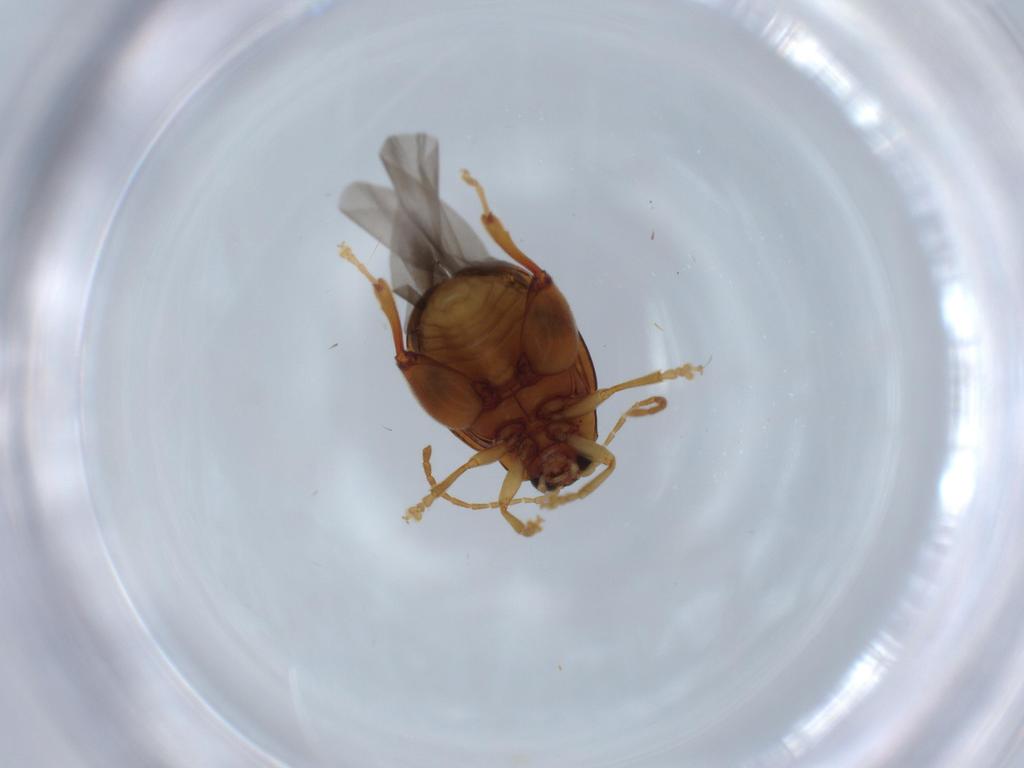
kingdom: Animalia
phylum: Arthropoda
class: Insecta
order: Coleoptera
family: Chrysomelidae
